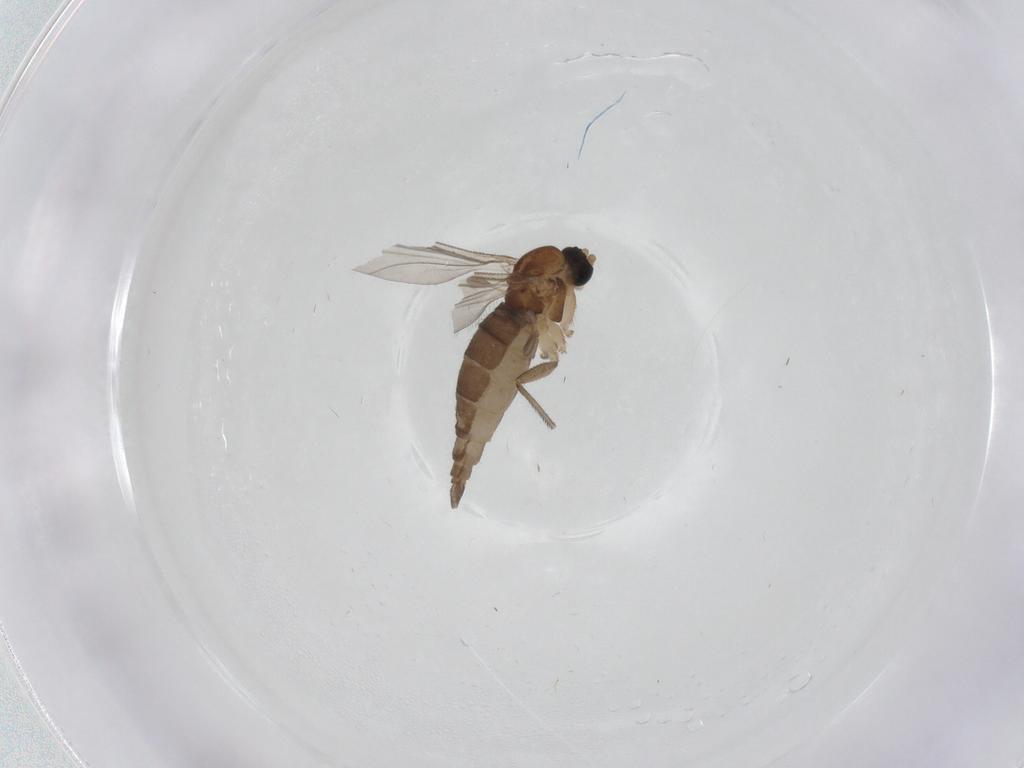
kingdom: Animalia
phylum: Arthropoda
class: Insecta
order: Diptera
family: Sciaridae
